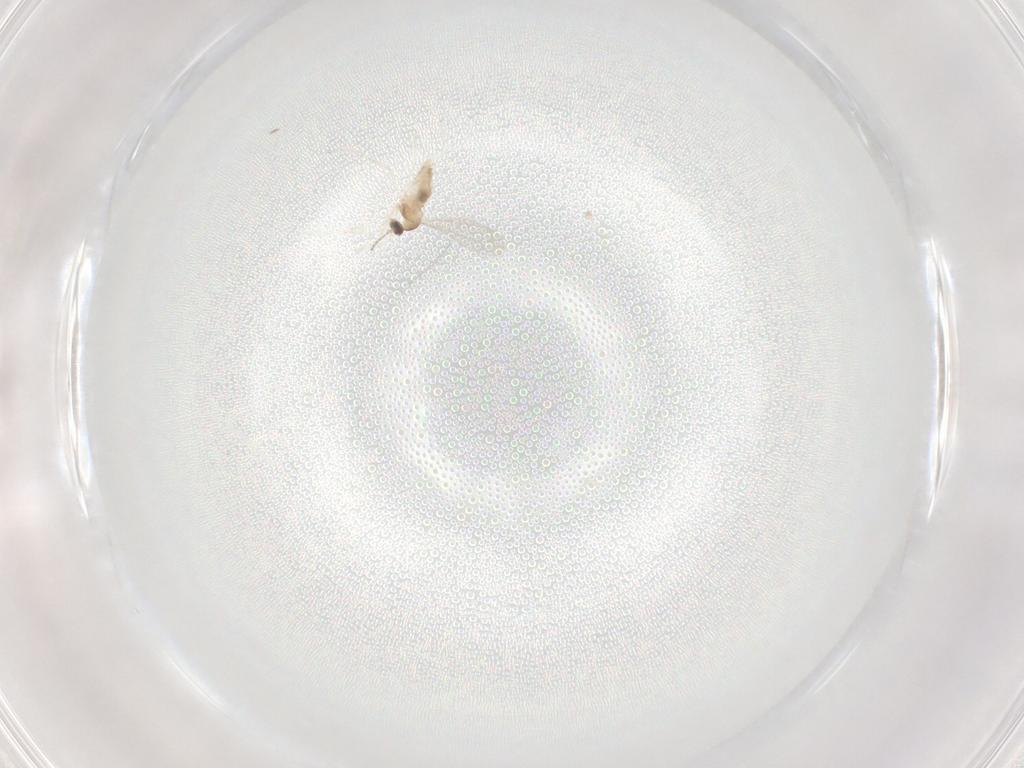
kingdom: Animalia
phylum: Arthropoda
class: Insecta
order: Diptera
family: Cecidomyiidae
